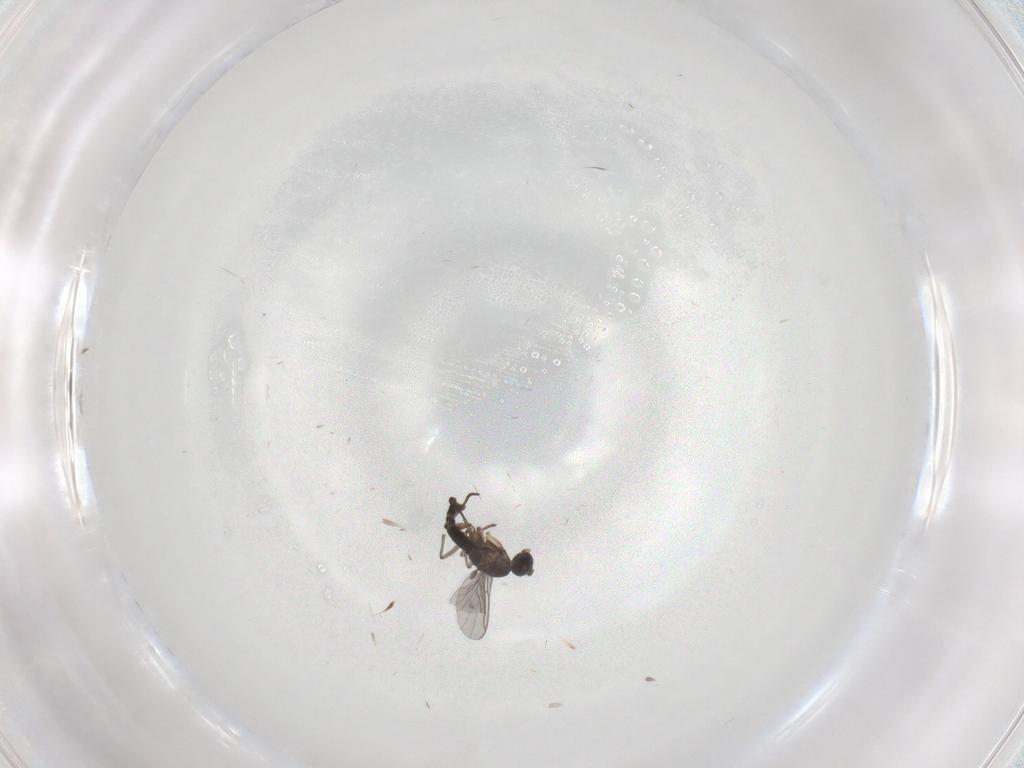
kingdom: Animalia
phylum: Arthropoda
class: Insecta
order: Diptera
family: Sciaridae
